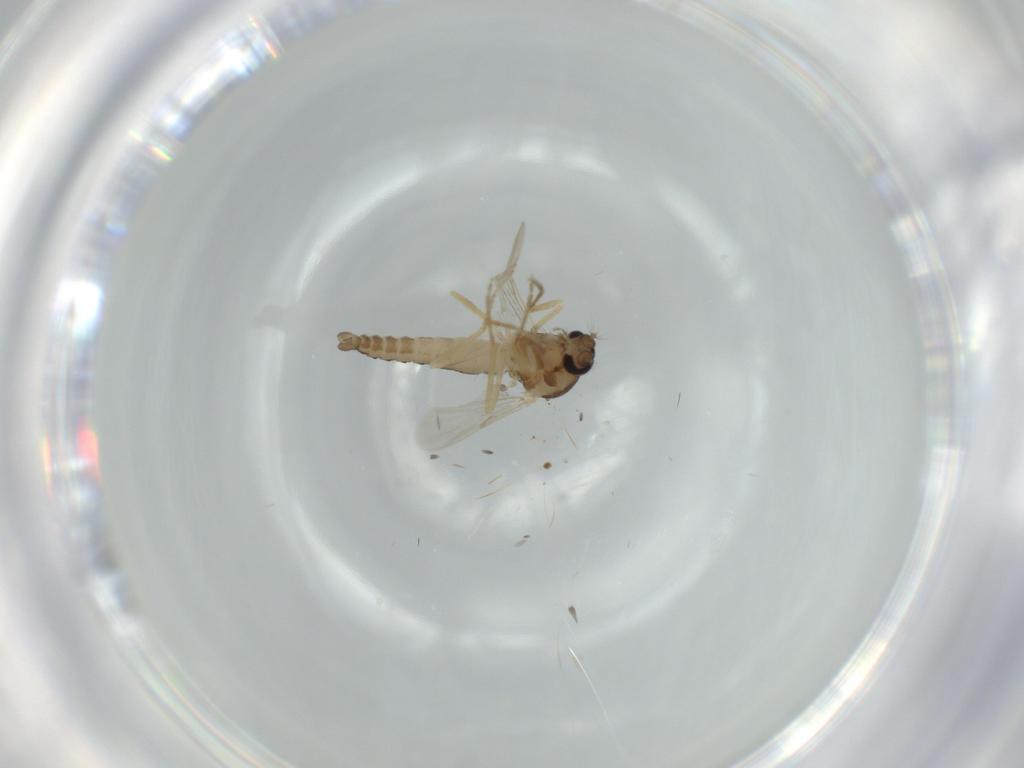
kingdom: Animalia
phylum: Arthropoda
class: Insecta
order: Diptera
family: Ceratopogonidae
